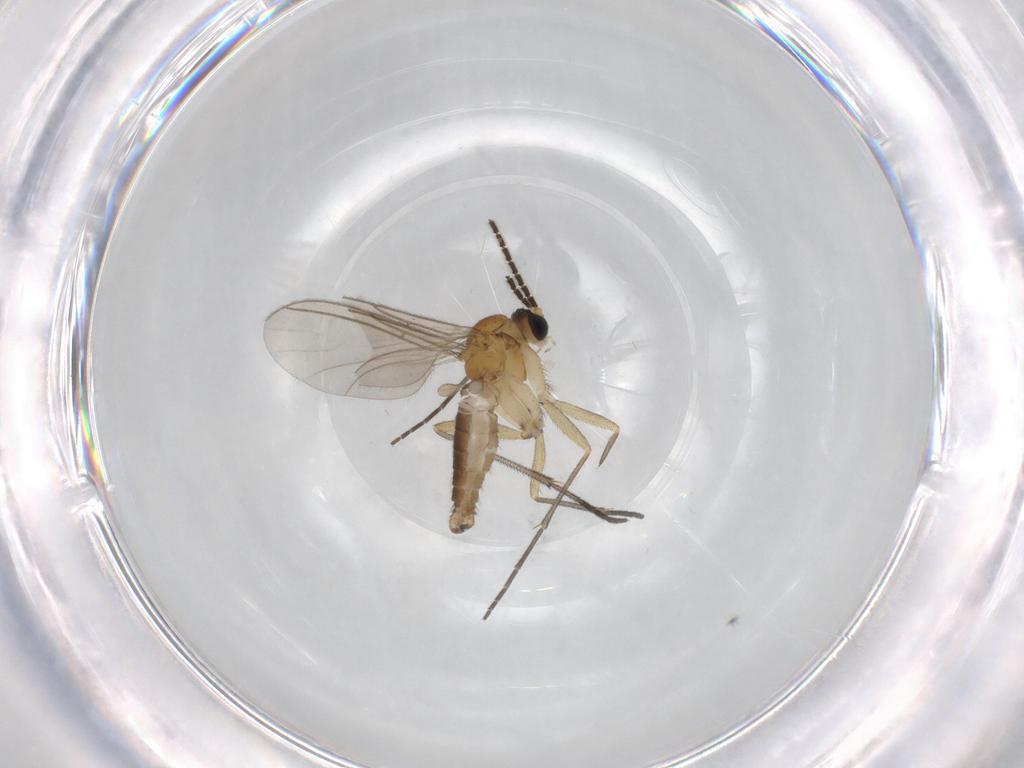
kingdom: Animalia
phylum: Arthropoda
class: Insecta
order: Diptera
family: Sciaridae
